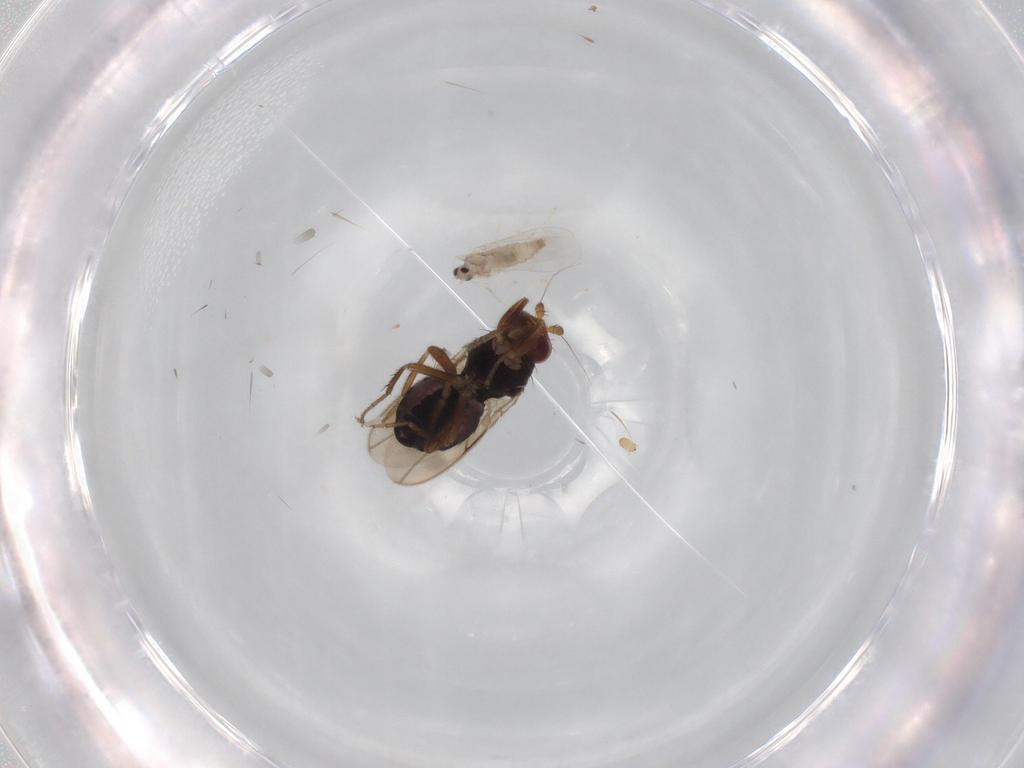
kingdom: Animalia
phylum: Arthropoda
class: Insecta
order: Diptera
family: Sphaeroceridae
